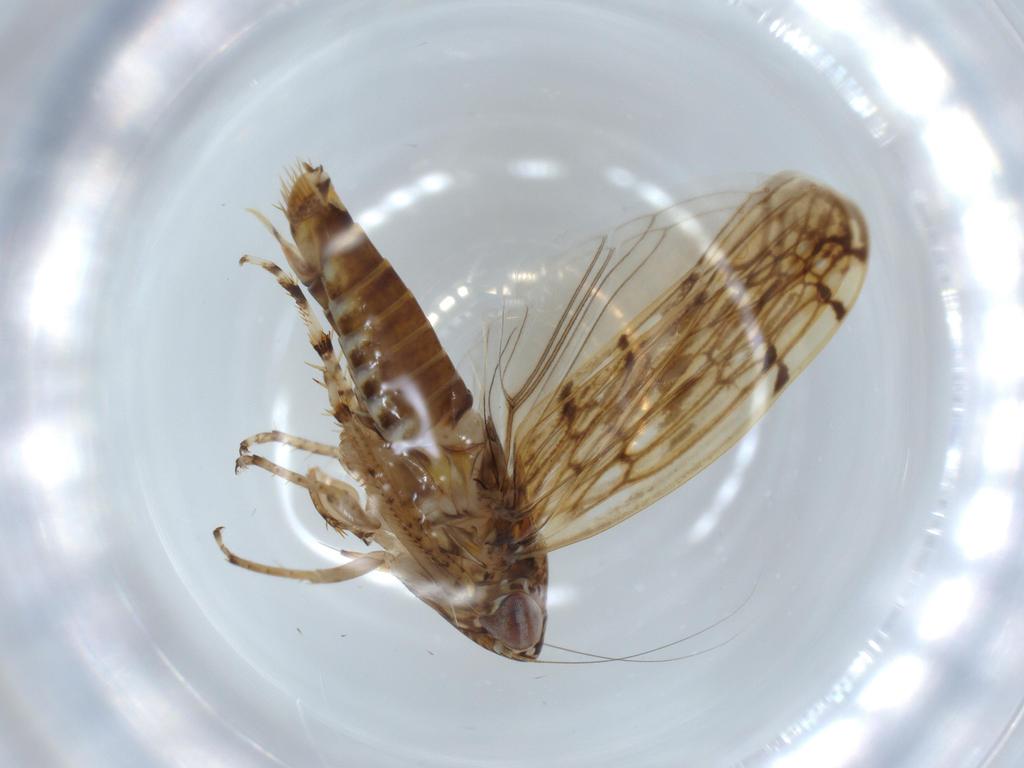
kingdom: Animalia
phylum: Arthropoda
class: Insecta
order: Hemiptera
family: Cicadellidae
